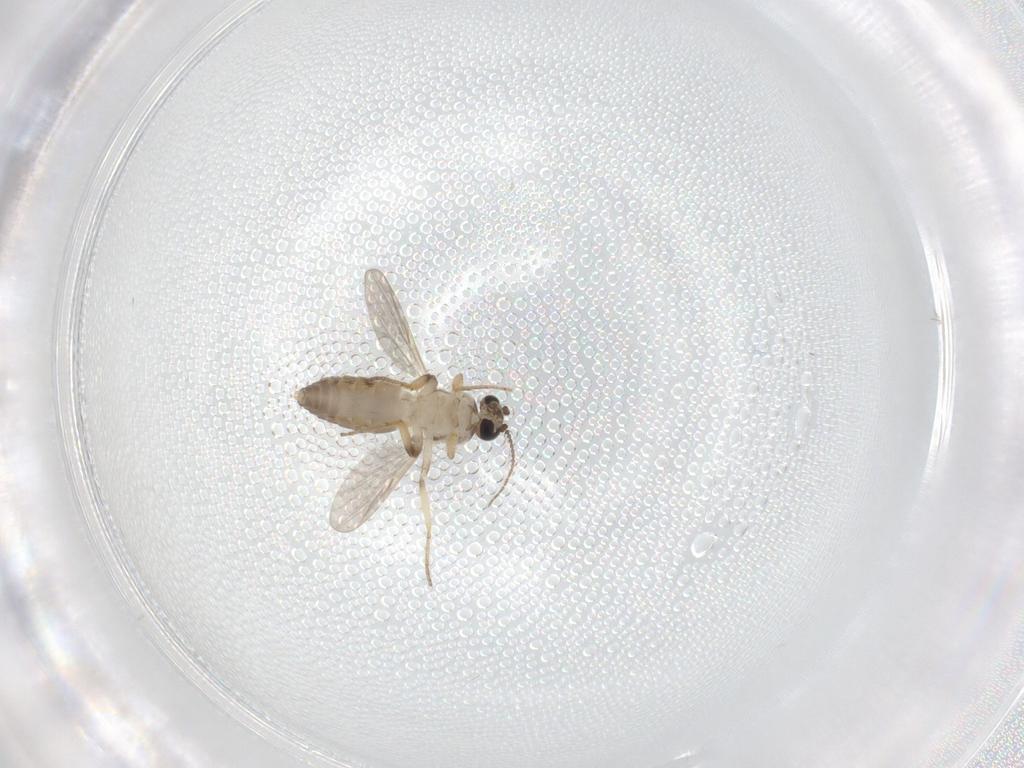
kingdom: Animalia
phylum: Arthropoda
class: Insecta
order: Diptera
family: Ceratopogonidae
